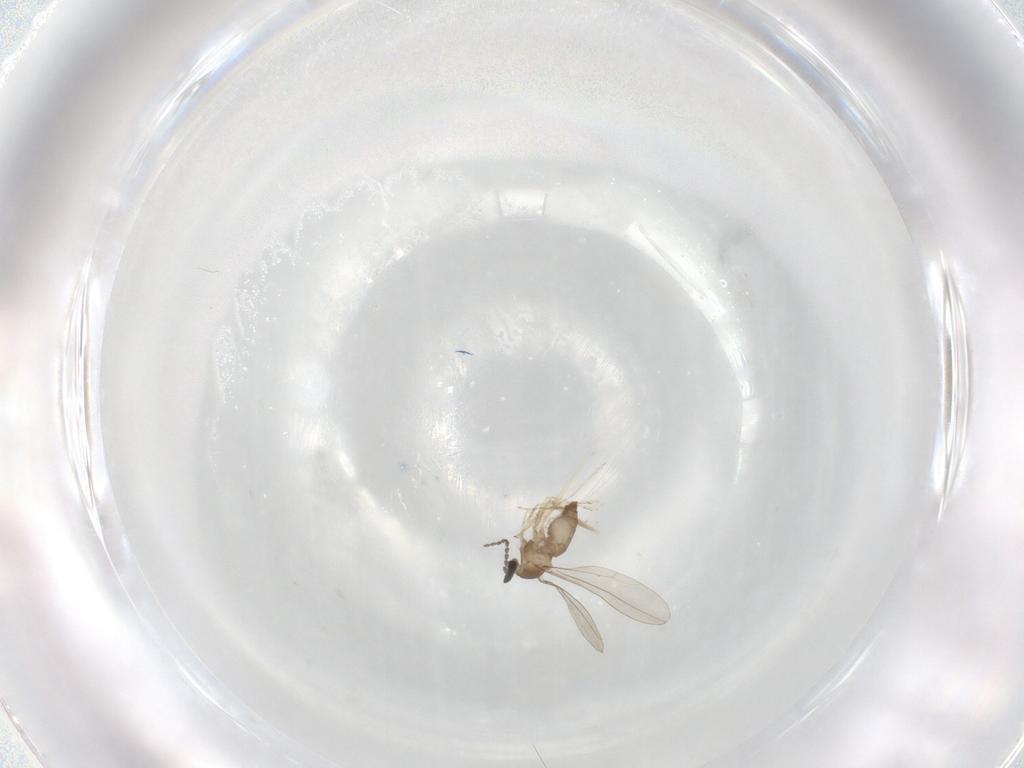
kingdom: Animalia
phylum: Arthropoda
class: Insecta
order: Diptera
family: Cecidomyiidae
